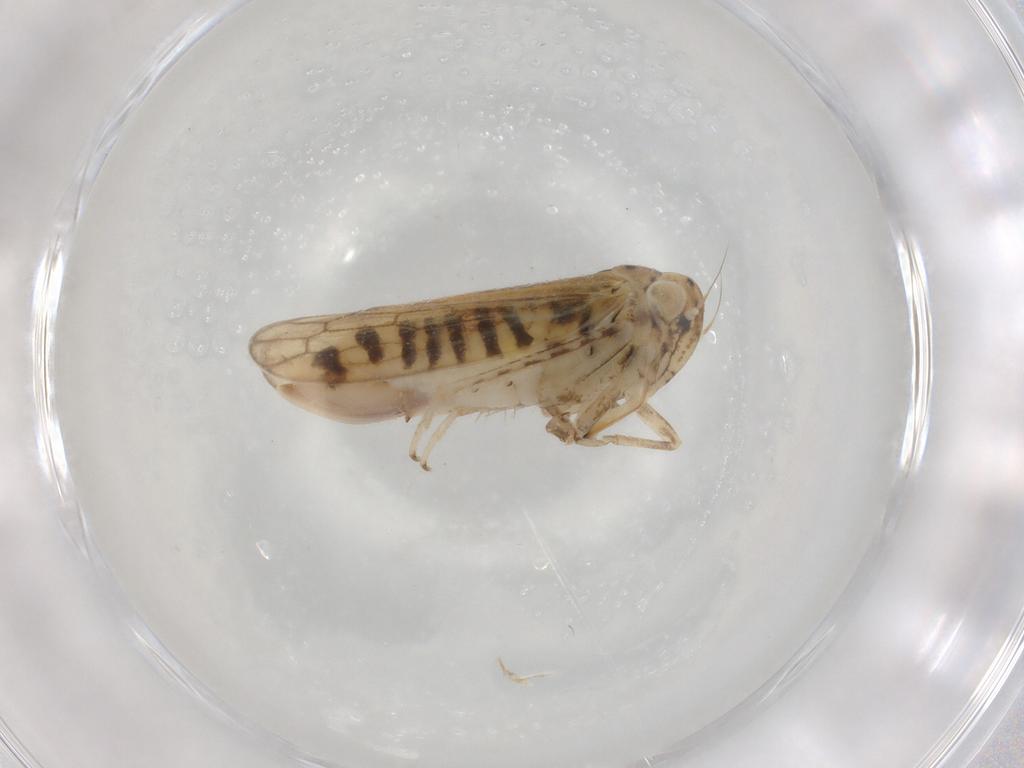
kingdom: Animalia
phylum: Arthropoda
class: Insecta
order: Hemiptera
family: Cicadellidae
